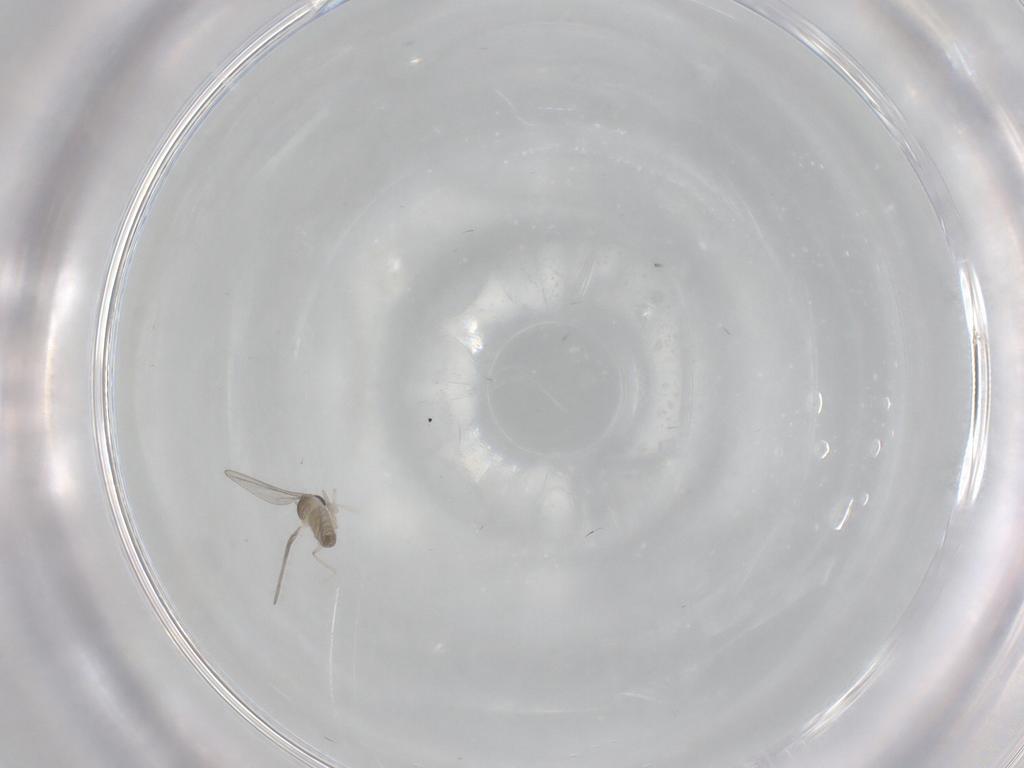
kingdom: Animalia
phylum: Arthropoda
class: Insecta
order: Diptera
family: Cecidomyiidae
